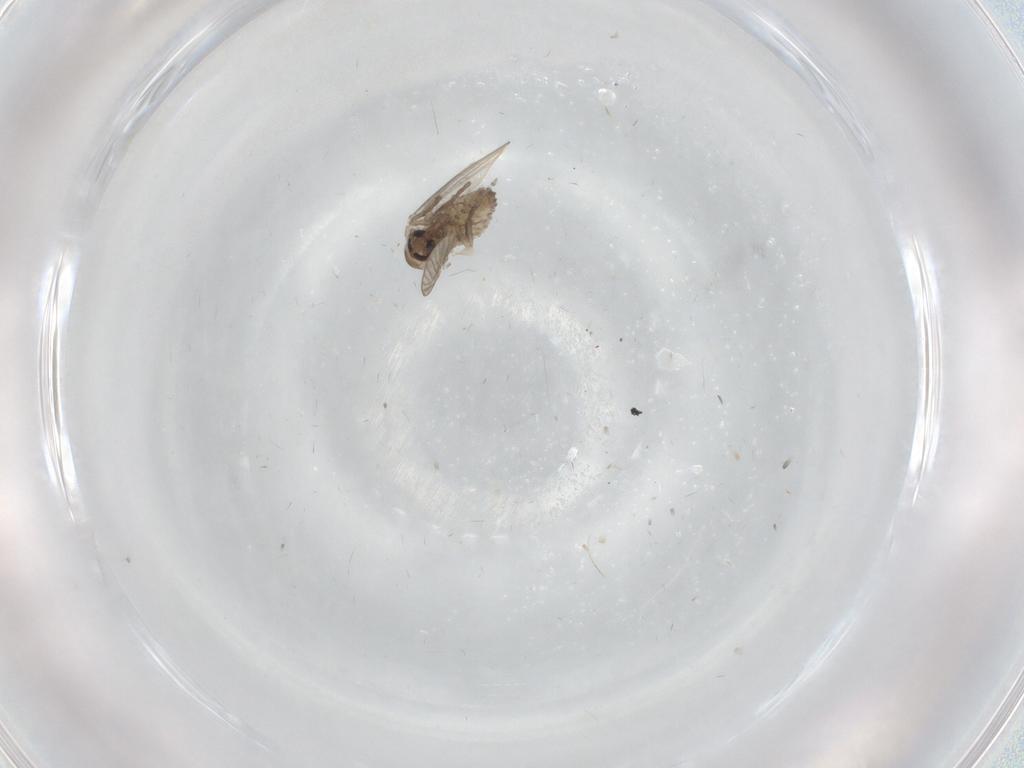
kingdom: Animalia
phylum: Arthropoda
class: Insecta
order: Diptera
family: Psychodidae
